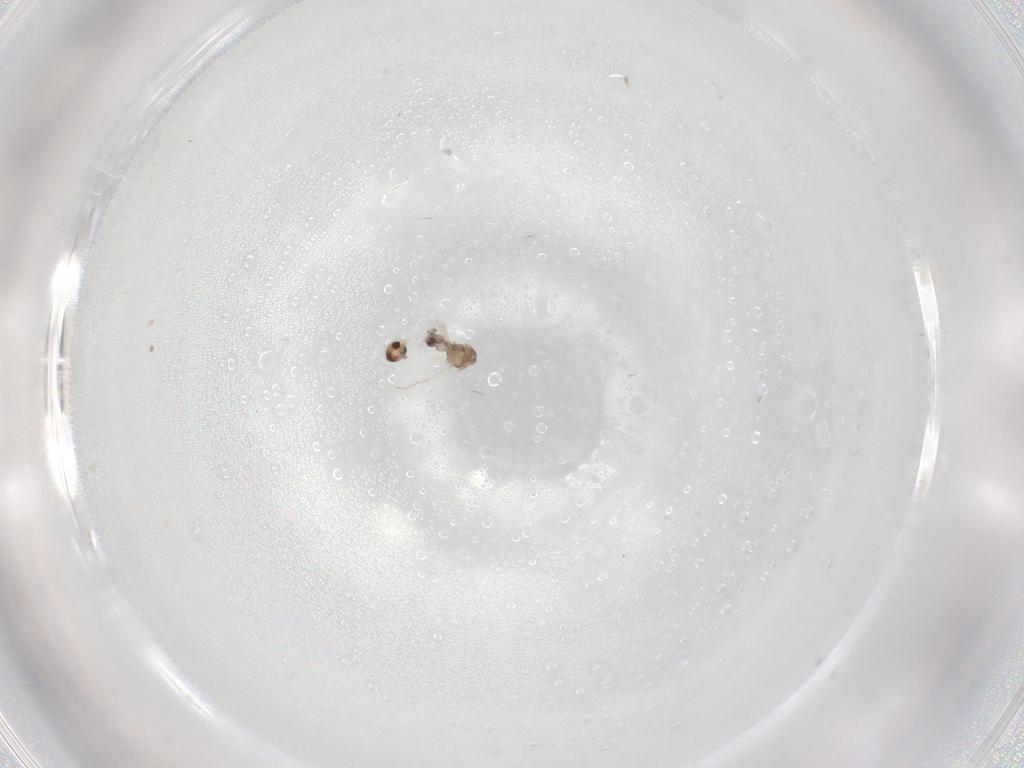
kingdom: Animalia
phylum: Arthropoda
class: Insecta
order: Diptera
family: Cecidomyiidae
